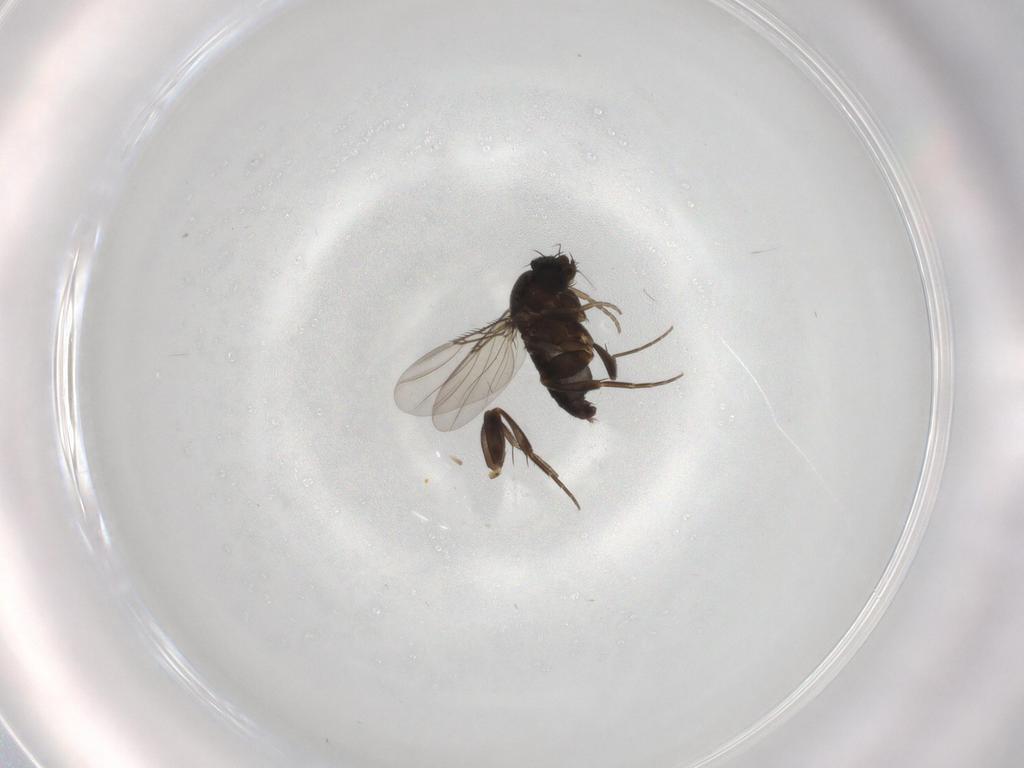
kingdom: Animalia
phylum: Arthropoda
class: Insecta
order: Diptera
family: Phoridae
